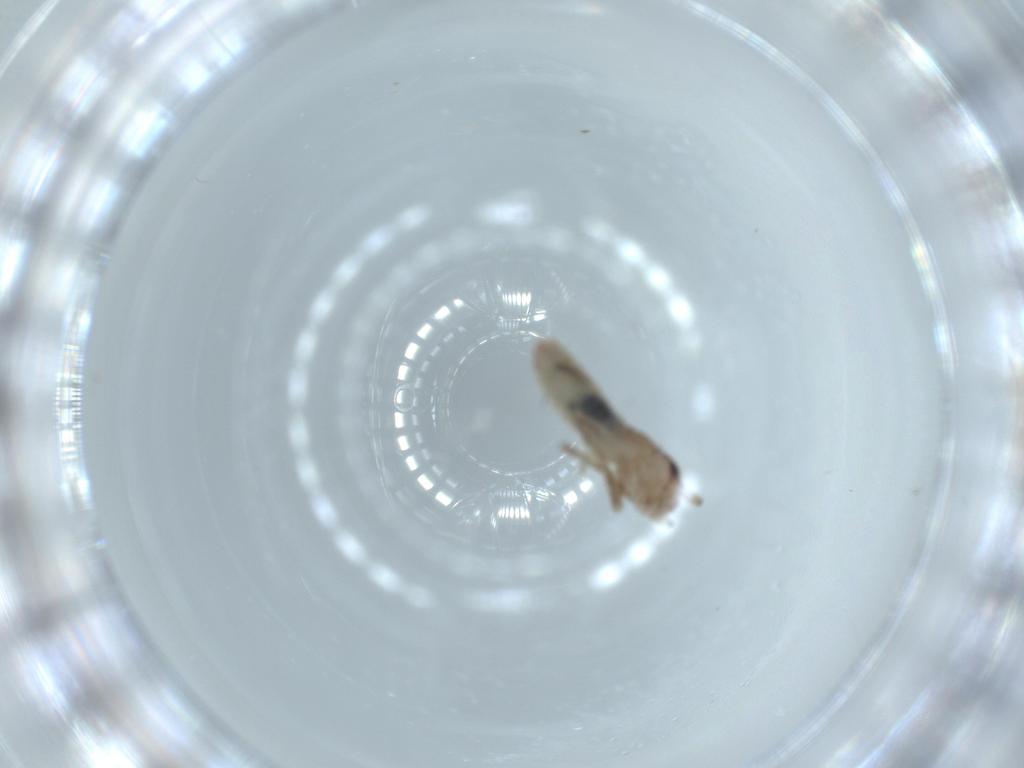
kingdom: Animalia
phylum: Arthropoda
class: Insecta
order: Orthoptera
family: Mogoplistidae
